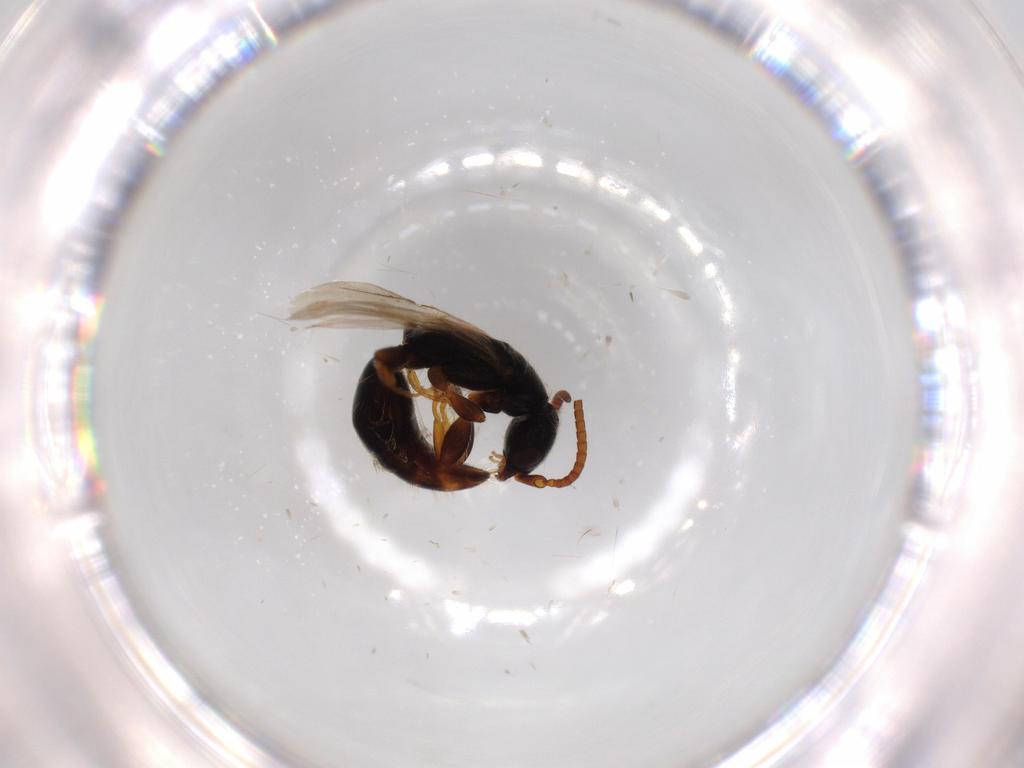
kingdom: Animalia
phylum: Arthropoda
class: Insecta
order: Hymenoptera
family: Bethylidae
